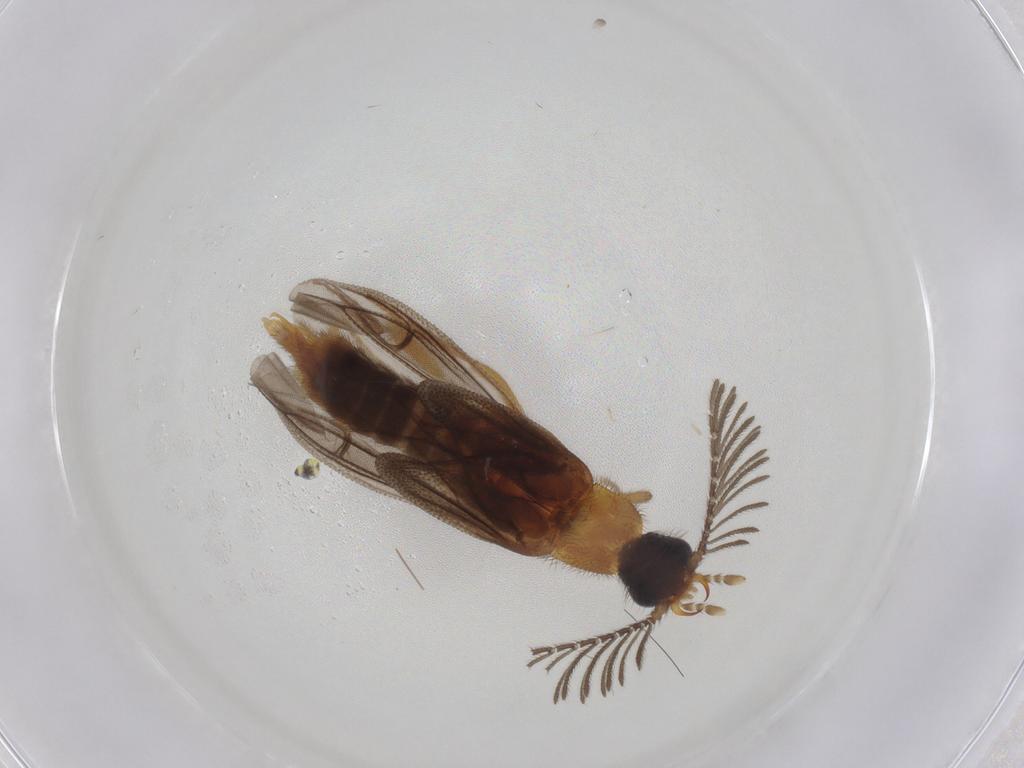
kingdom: Animalia
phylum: Arthropoda
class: Insecta
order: Coleoptera
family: Phengodidae
